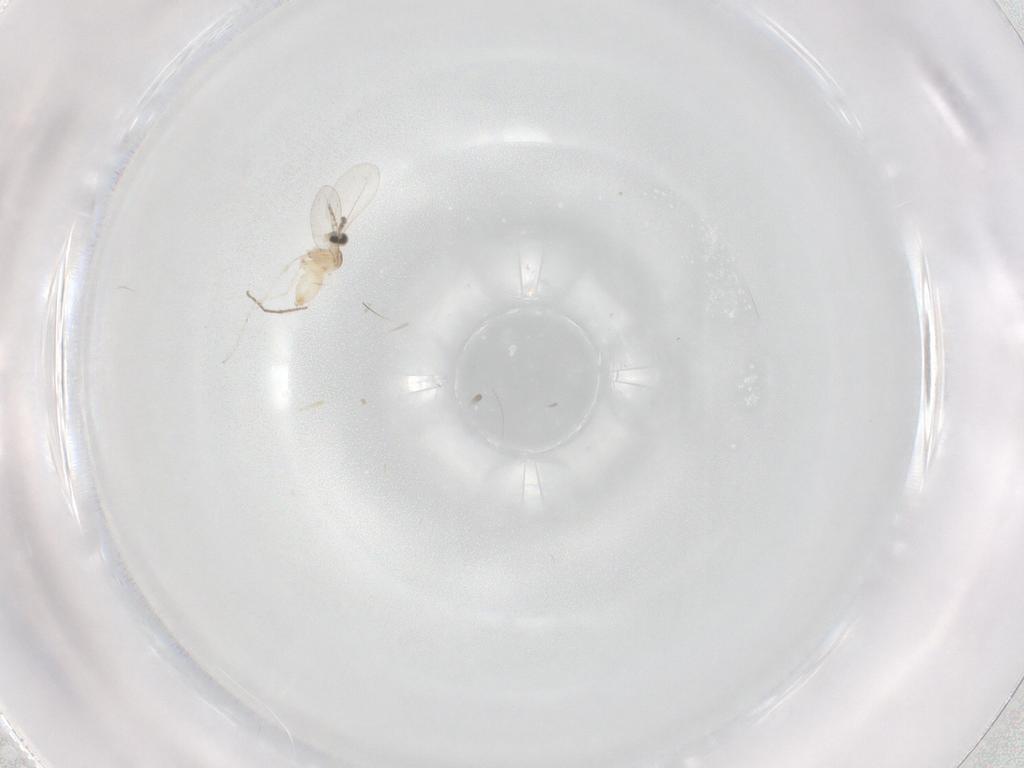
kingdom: Animalia
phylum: Arthropoda
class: Insecta
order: Diptera
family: Cecidomyiidae
